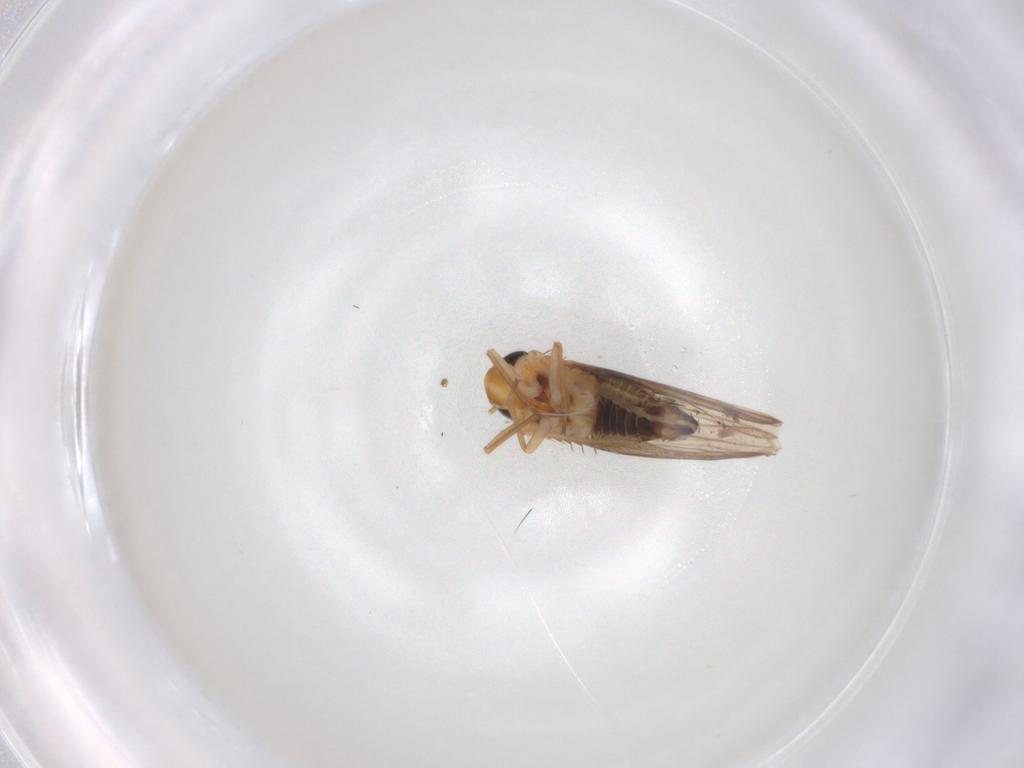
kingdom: Animalia
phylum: Arthropoda
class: Insecta
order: Hemiptera
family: Cicadellidae
